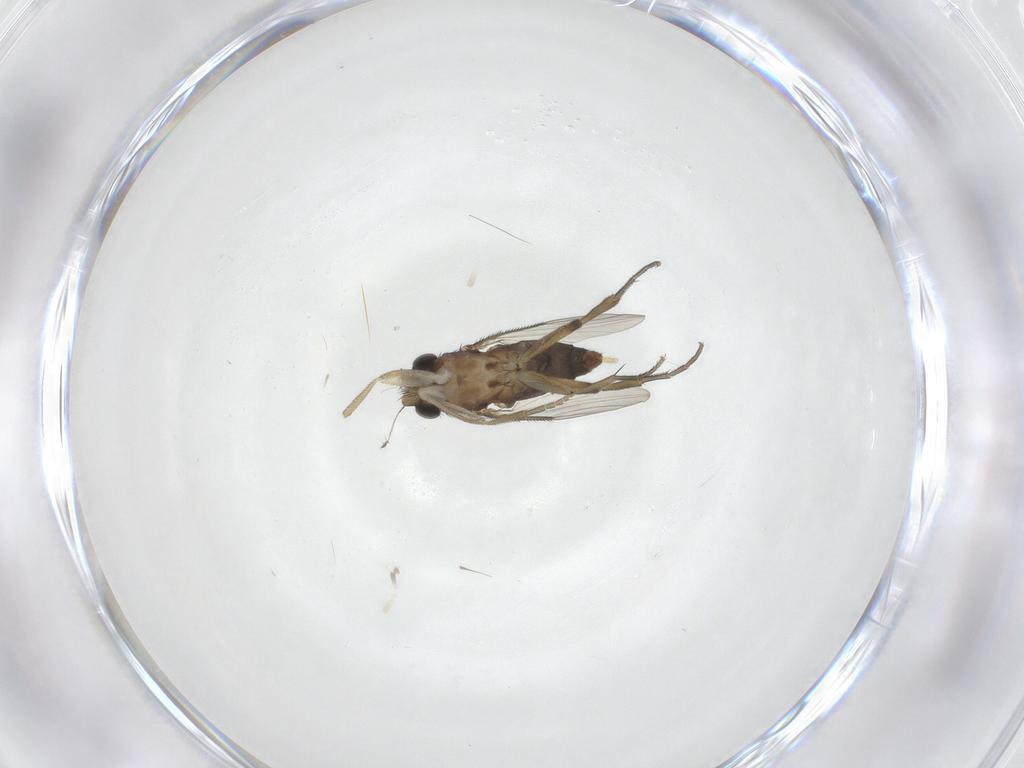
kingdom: Animalia
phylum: Arthropoda
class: Insecta
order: Diptera
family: Phoridae
